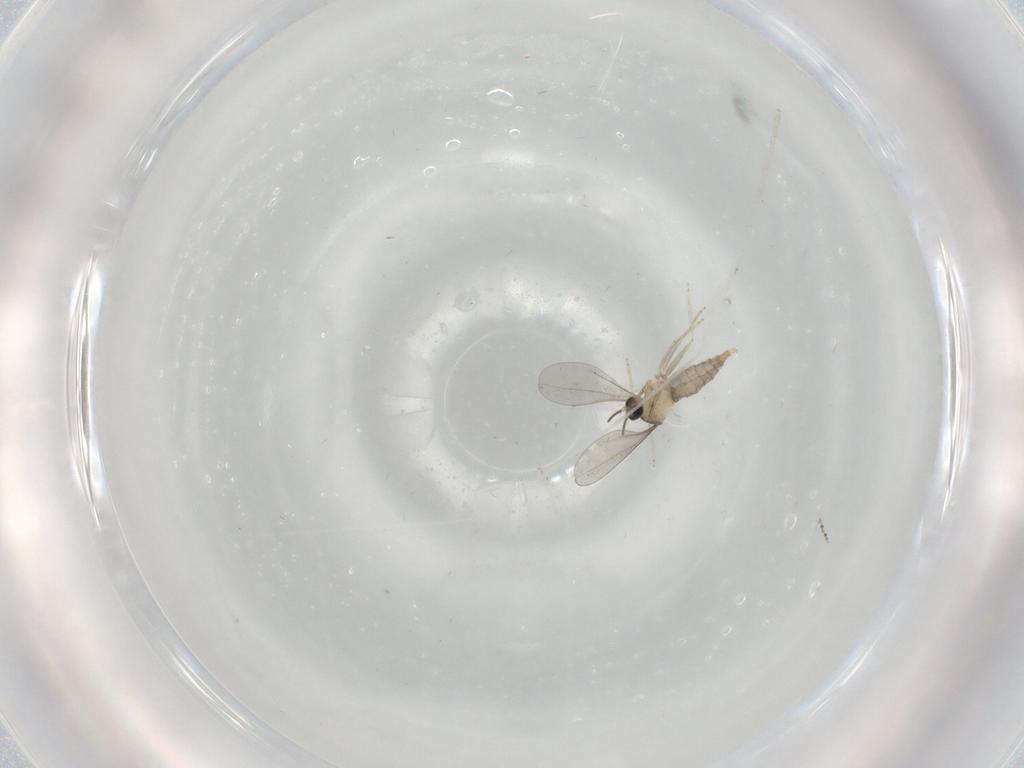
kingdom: Animalia
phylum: Arthropoda
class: Insecta
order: Diptera
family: Cecidomyiidae
